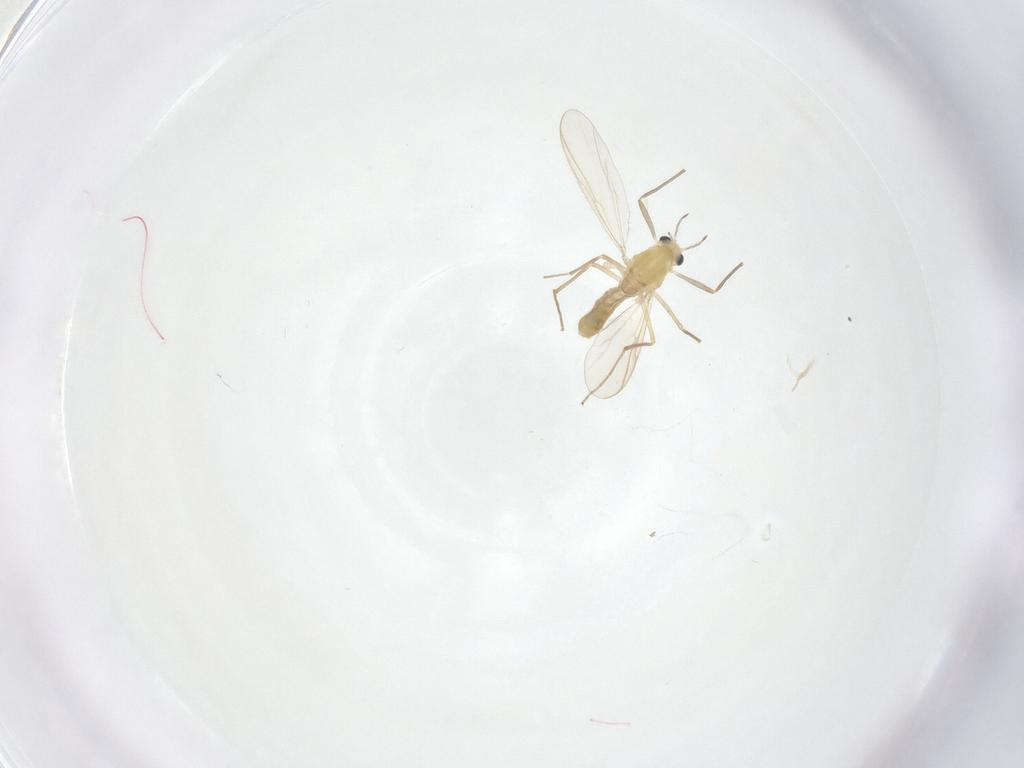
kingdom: Animalia
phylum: Arthropoda
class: Insecta
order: Diptera
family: Chironomidae
